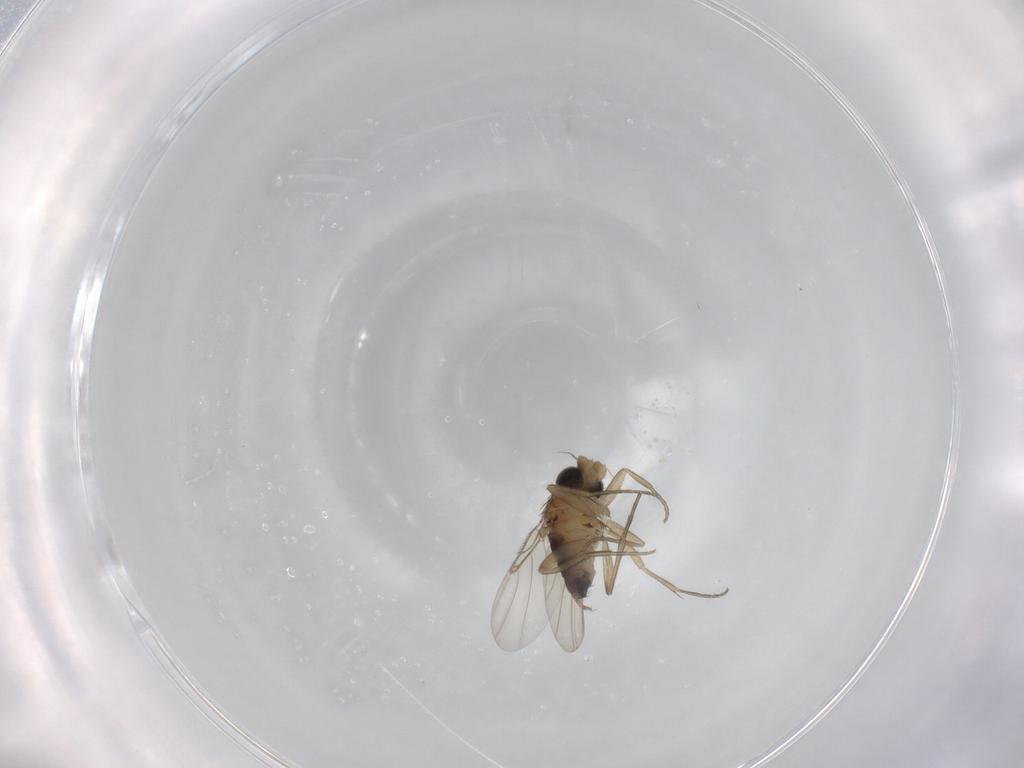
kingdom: Animalia
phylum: Arthropoda
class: Insecta
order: Diptera
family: Phoridae
